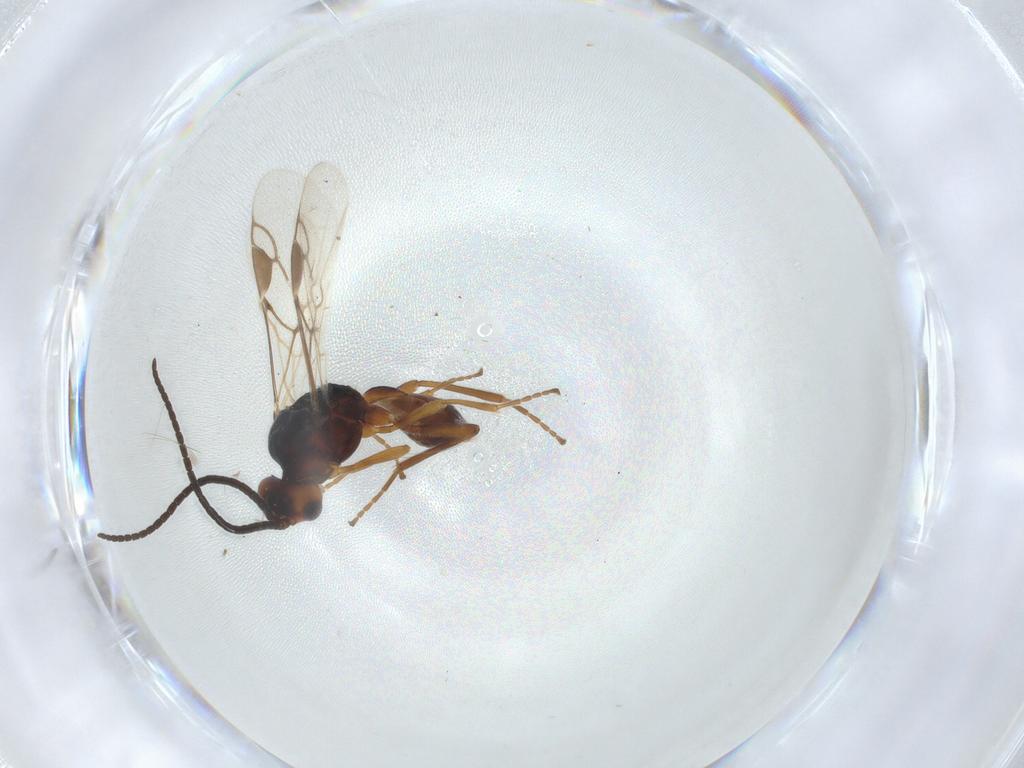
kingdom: Animalia
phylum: Arthropoda
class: Insecta
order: Hymenoptera
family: Braconidae
